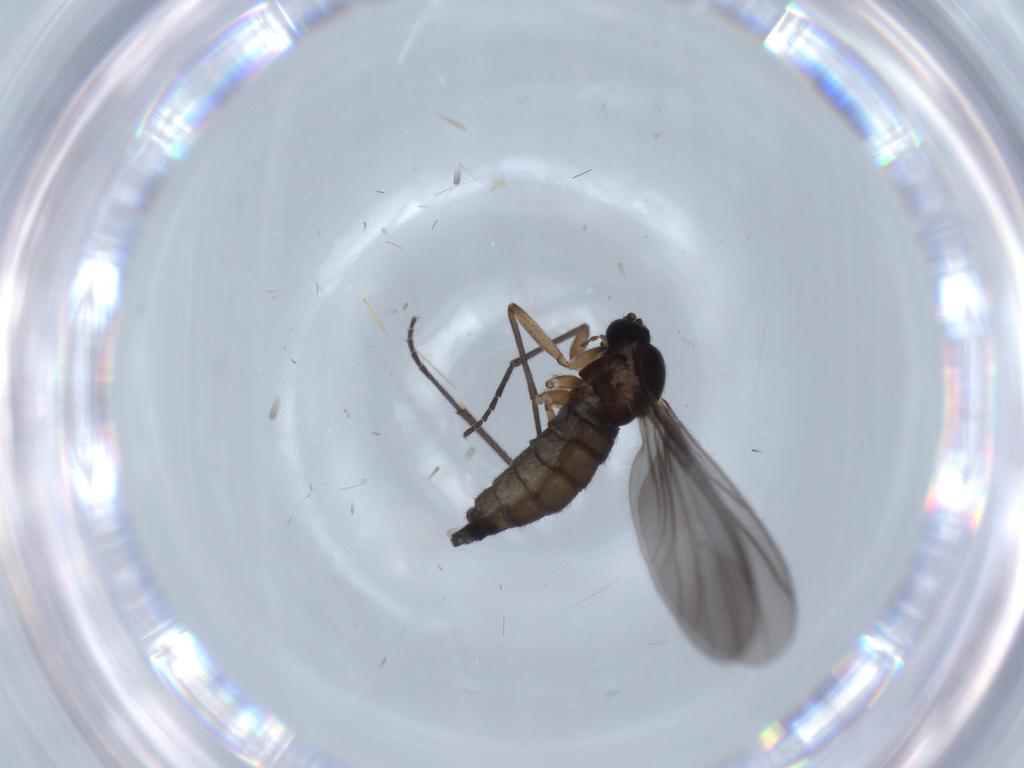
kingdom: Animalia
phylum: Arthropoda
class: Insecta
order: Diptera
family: Sciaridae
